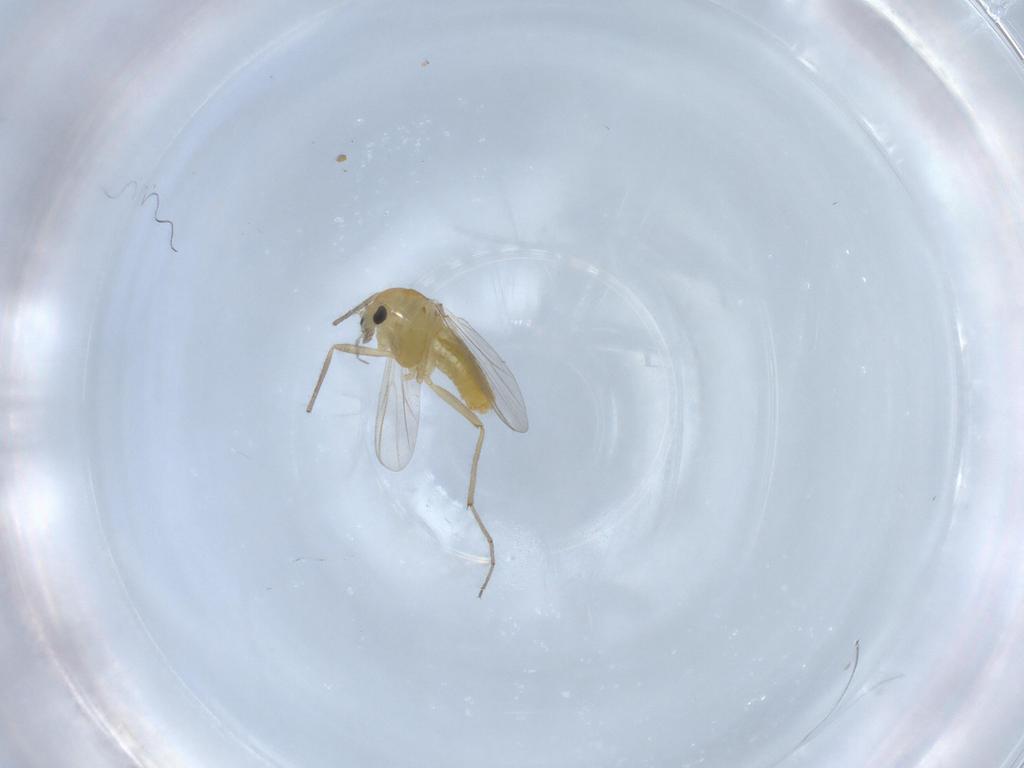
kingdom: Animalia
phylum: Arthropoda
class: Insecta
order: Diptera
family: Chironomidae
